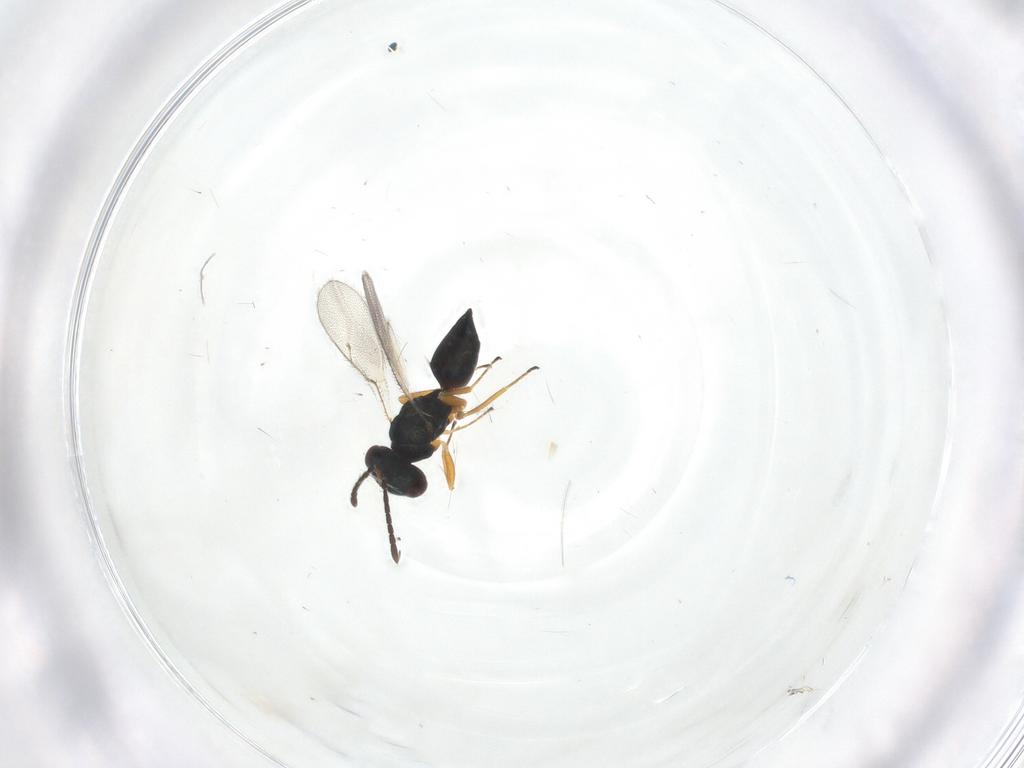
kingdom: Animalia
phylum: Arthropoda
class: Insecta
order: Hymenoptera
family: Pteromalidae
